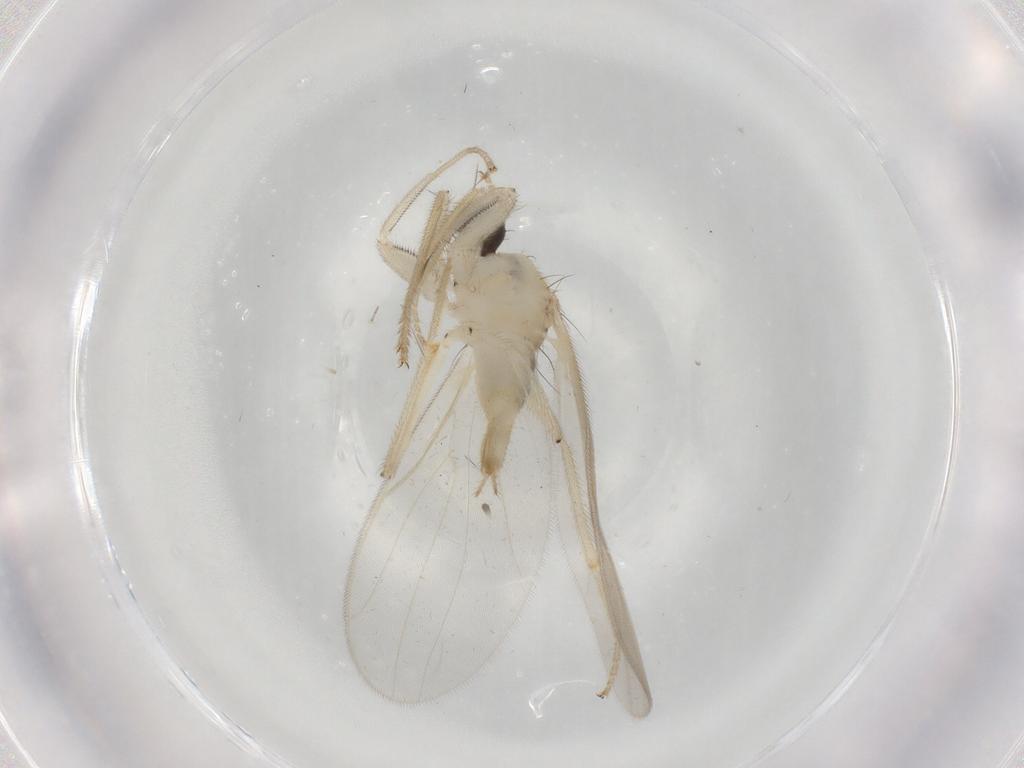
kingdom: Animalia
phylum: Arthropoda
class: Insecta
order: Diptera
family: Hybotidae
